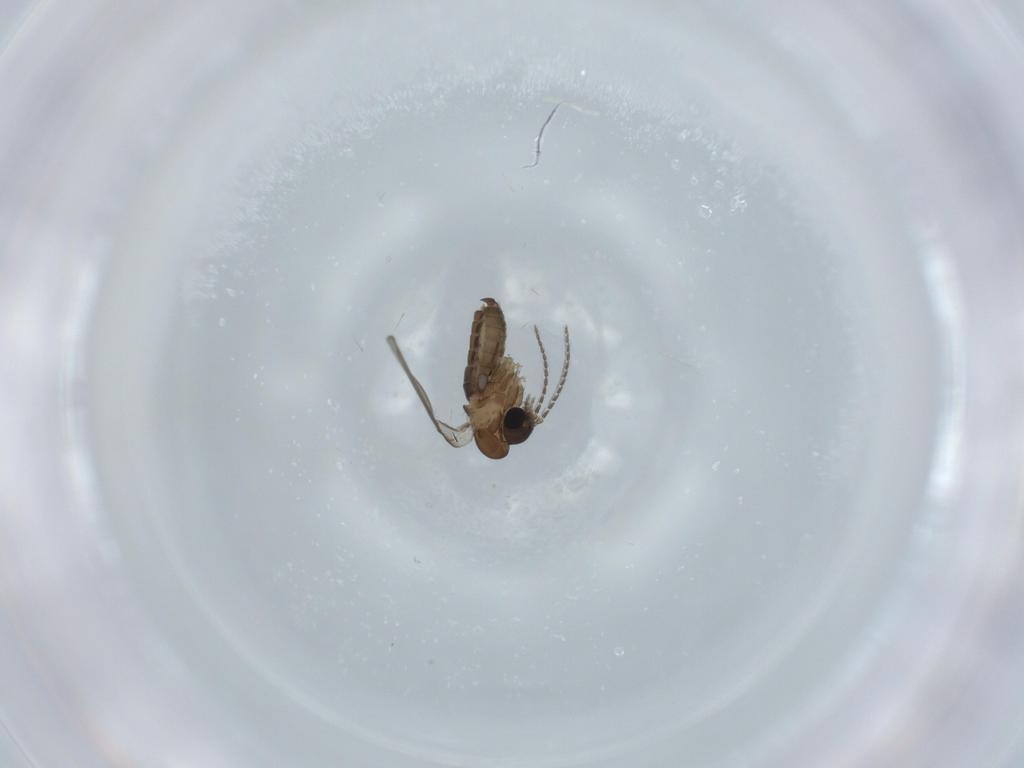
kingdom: Animalia
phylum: Arthropoda
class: Insecta
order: Diptera
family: Psychodidae
